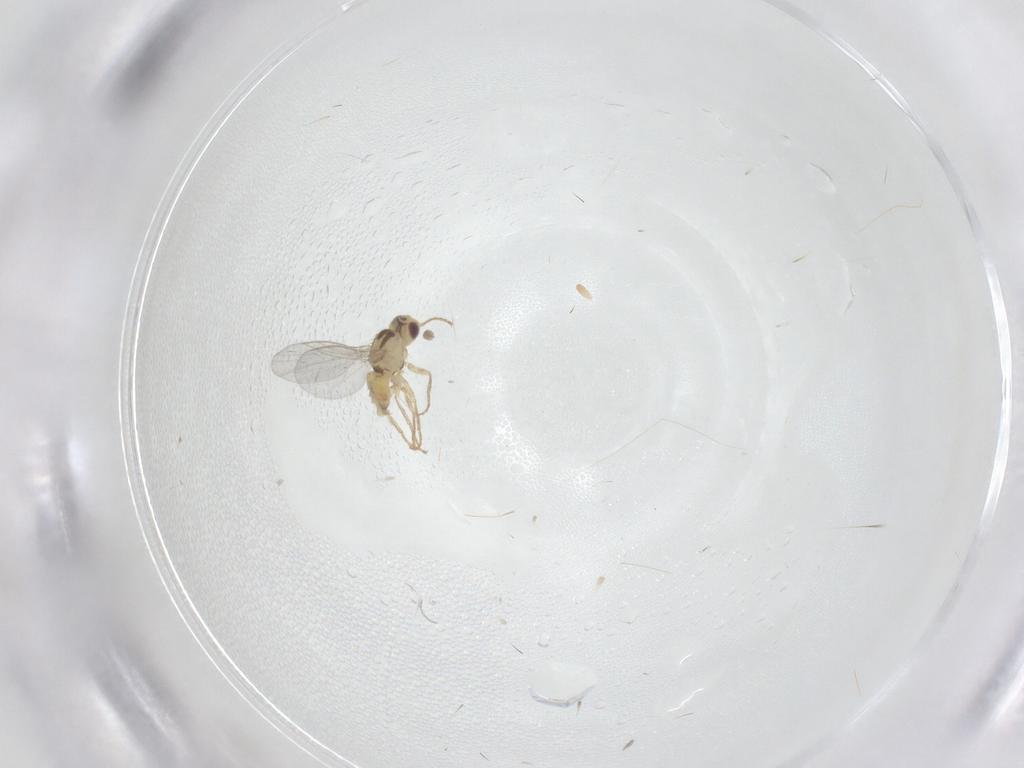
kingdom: Animalia
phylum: Arthropoda
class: Insecta
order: Diptera
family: Agromyzidae
